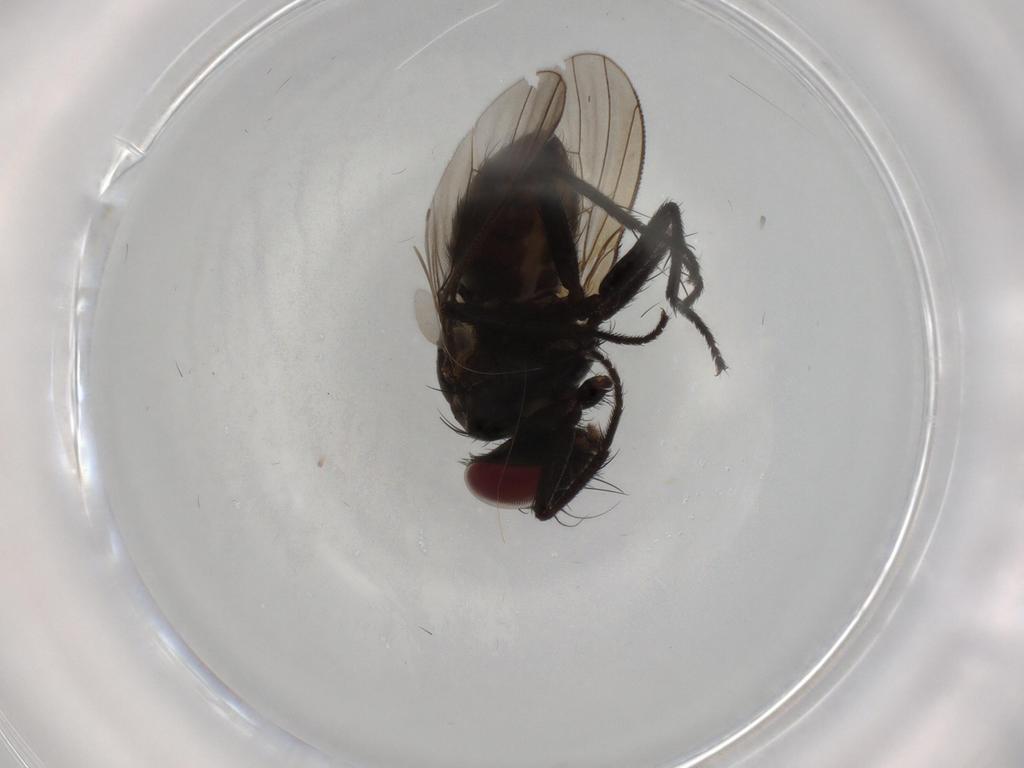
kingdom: Animalia
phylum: Arthropoda
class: Insecta
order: Diptera
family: Muscidae
